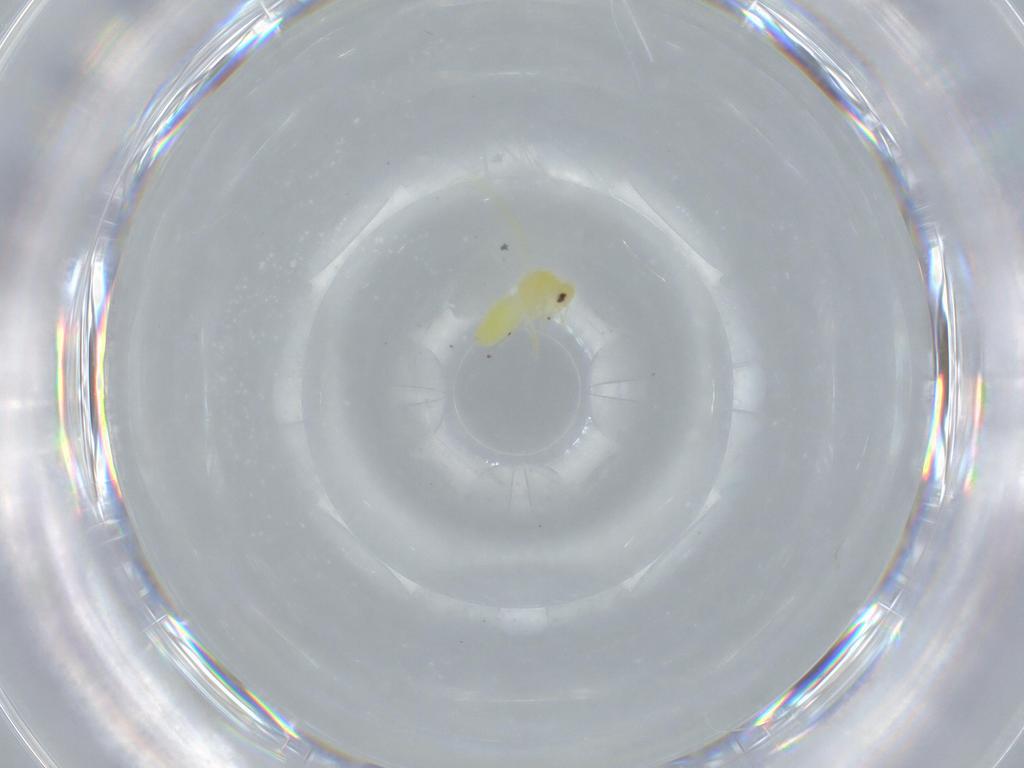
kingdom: Animalia
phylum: Arthropoda
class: Insecta
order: Hemiptera
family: Aleyrodidae
